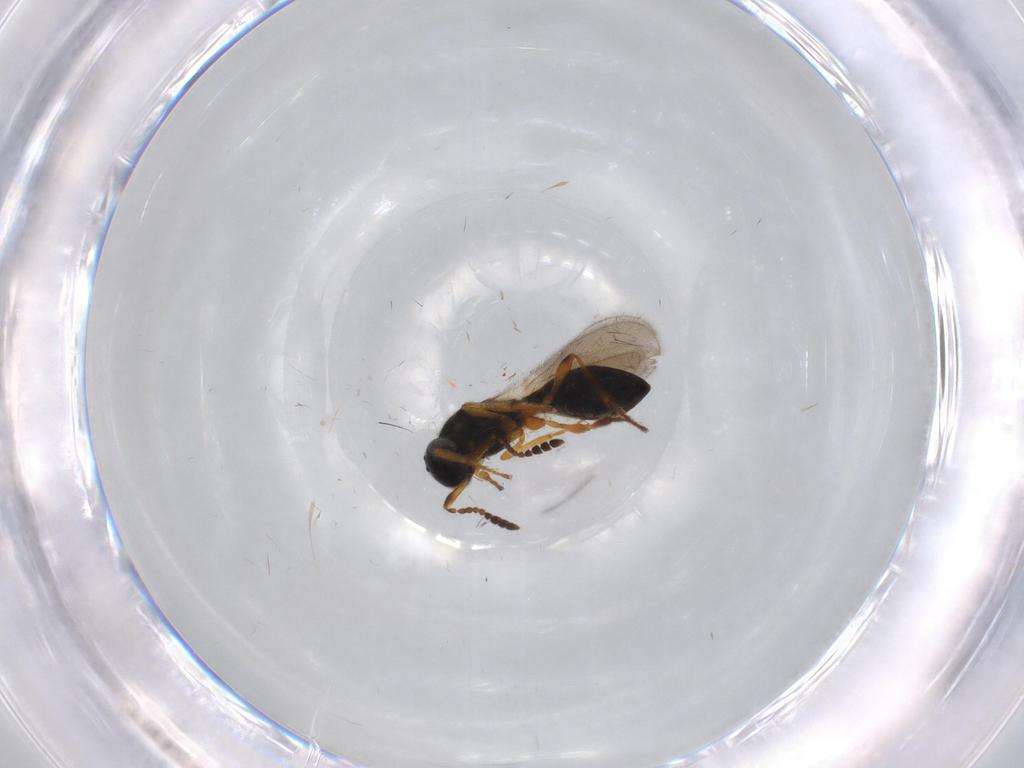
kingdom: Animalia
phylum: Arthropoda
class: Insecta
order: Hymenoptera
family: Platygastridae
